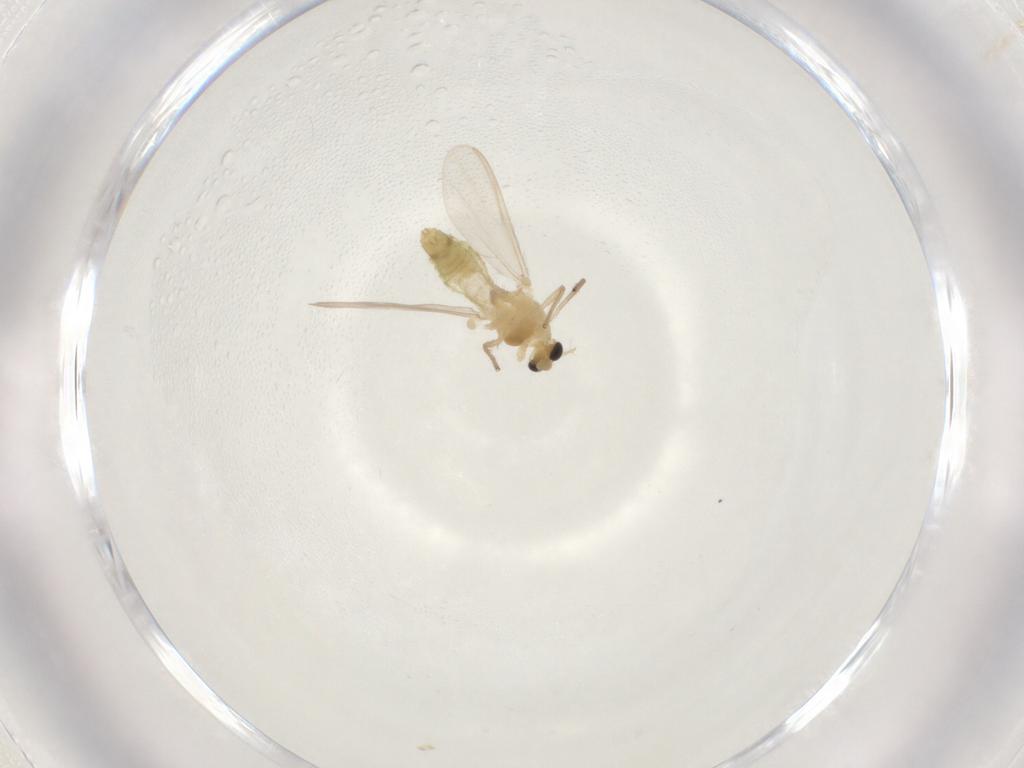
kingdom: Animalia
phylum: Arthropoda
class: Insecta
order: Diptera
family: Chironomidae
